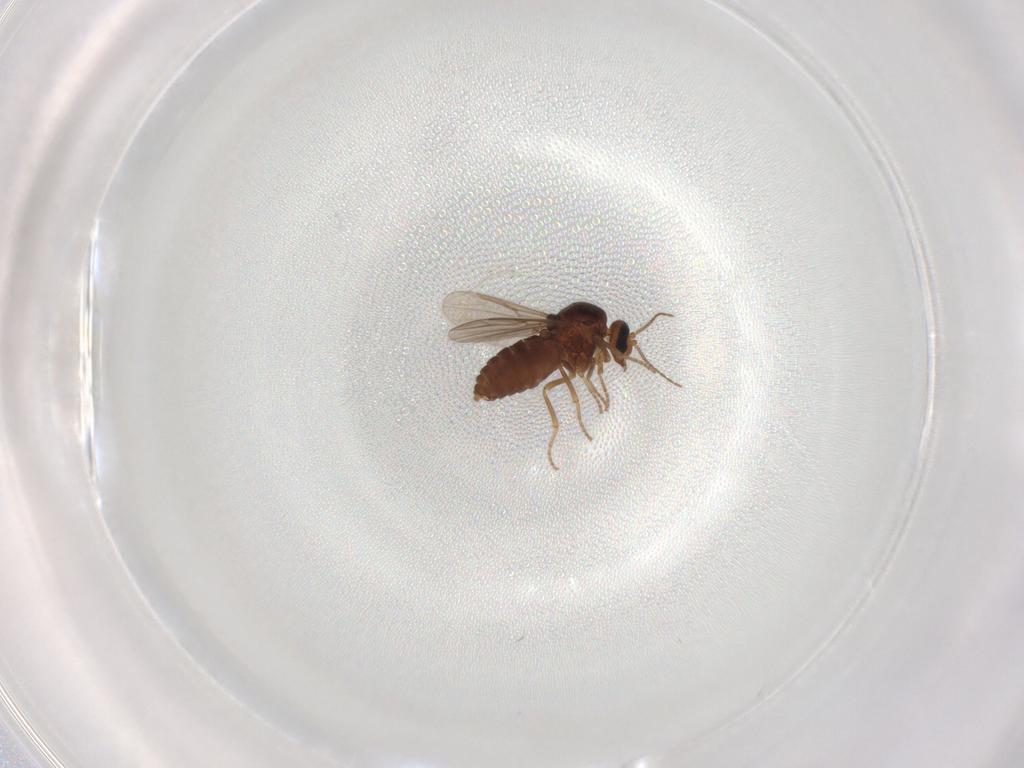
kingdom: Animalia
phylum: Arthropoda
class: Insecta
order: Diptera
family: Ceratopogonidae
